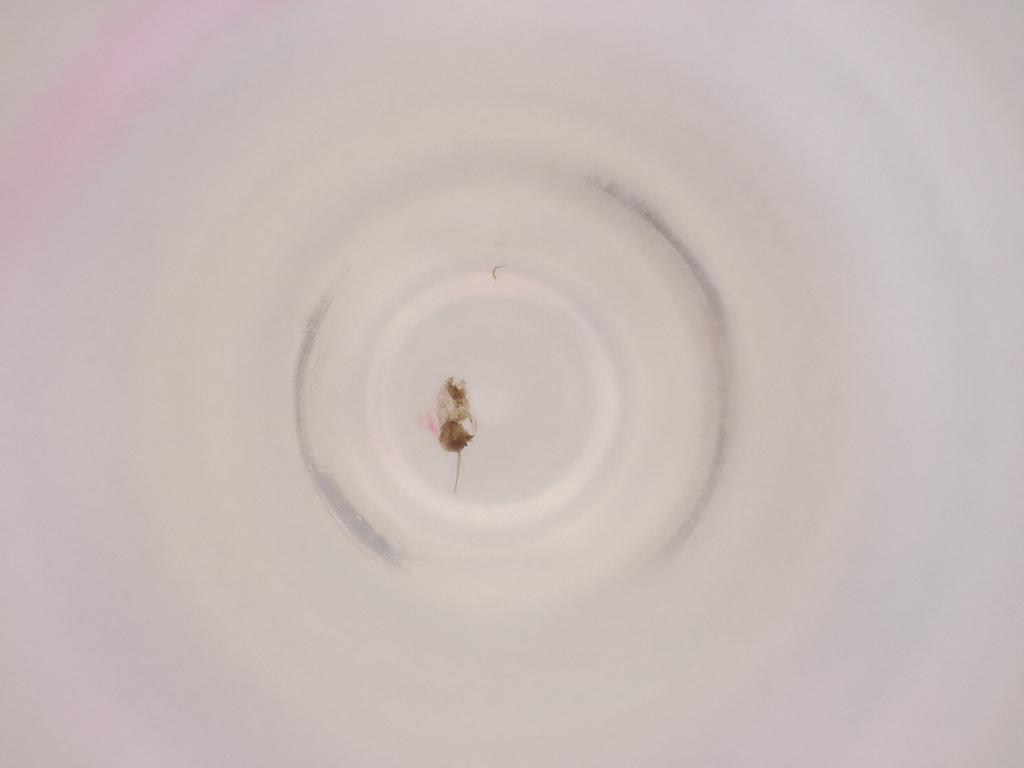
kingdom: Animalia
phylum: Arthropoda
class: Insecta
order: Diptera
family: Cecidomyiidae
